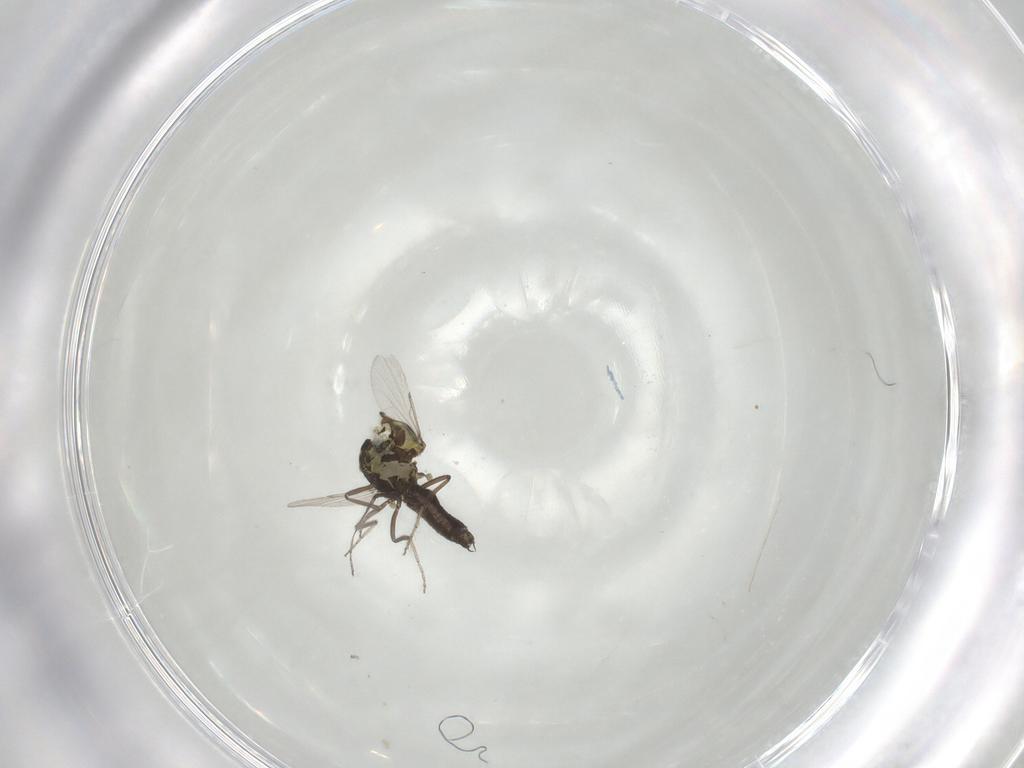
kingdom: Animalia
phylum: Arthropoda
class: Insecta
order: Diptera
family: Ceratopogonidae
